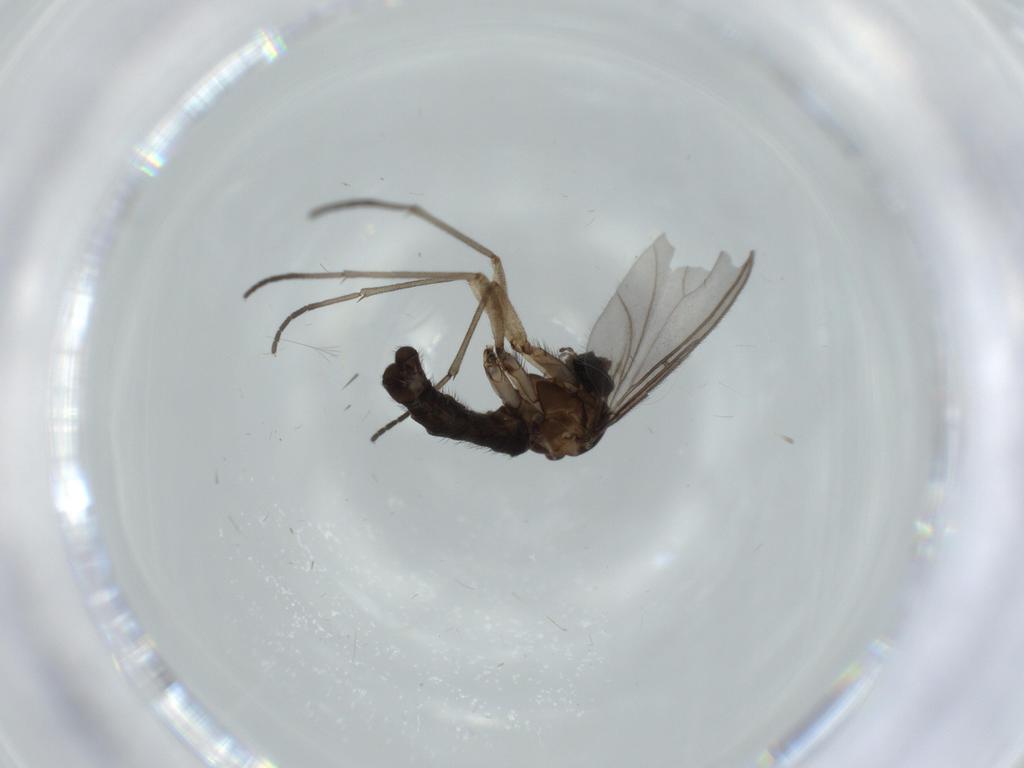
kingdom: Animalia
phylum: Arthropoda
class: Insecta
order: Diptera
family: Sciaridae
